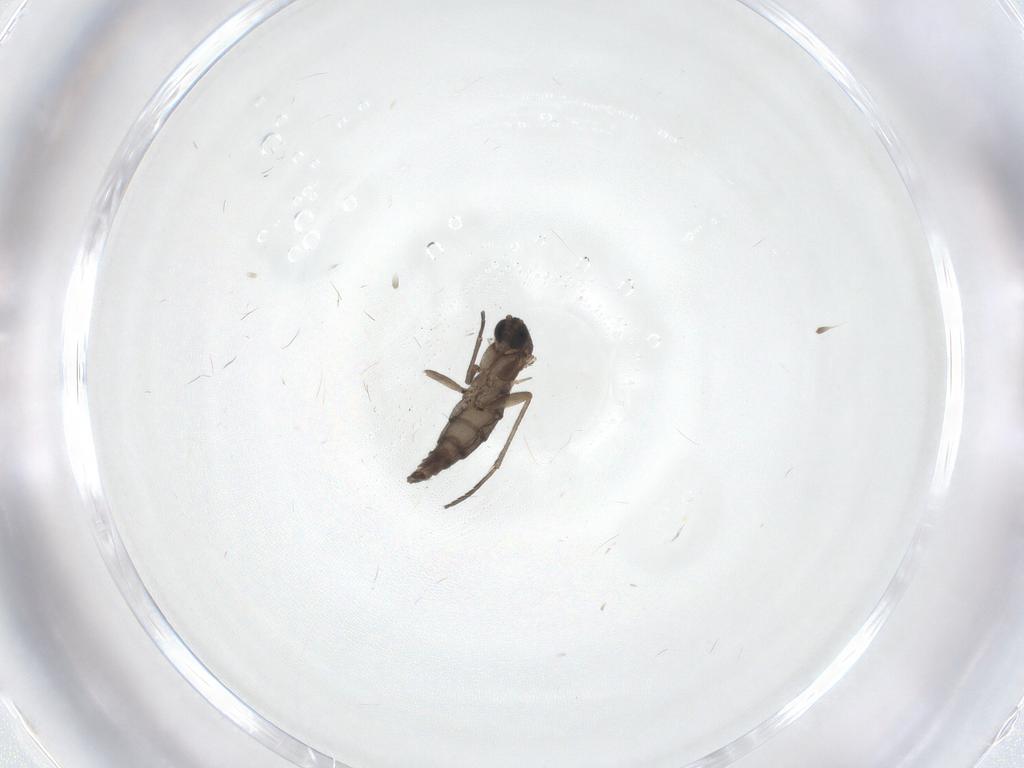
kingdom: Animalia
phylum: Arthropoda
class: Insecta
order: Diptera
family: Sciaridae
